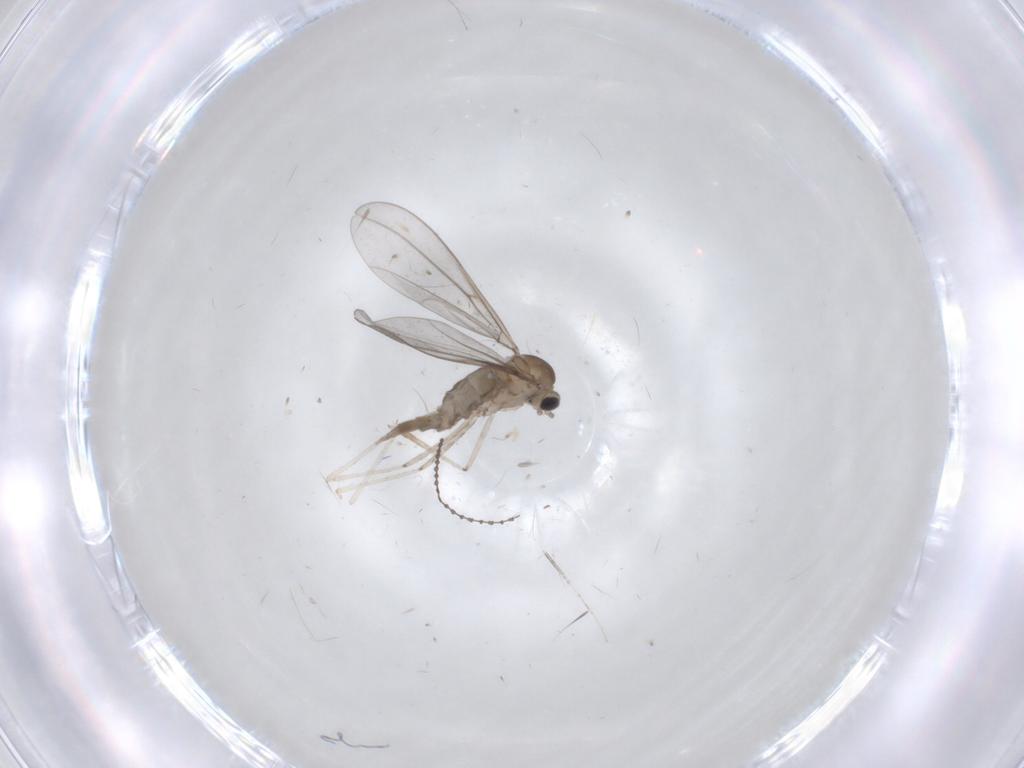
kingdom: Animalia
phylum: Arthropoda
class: Insecta
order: Diptera
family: Cecidomyiidae
